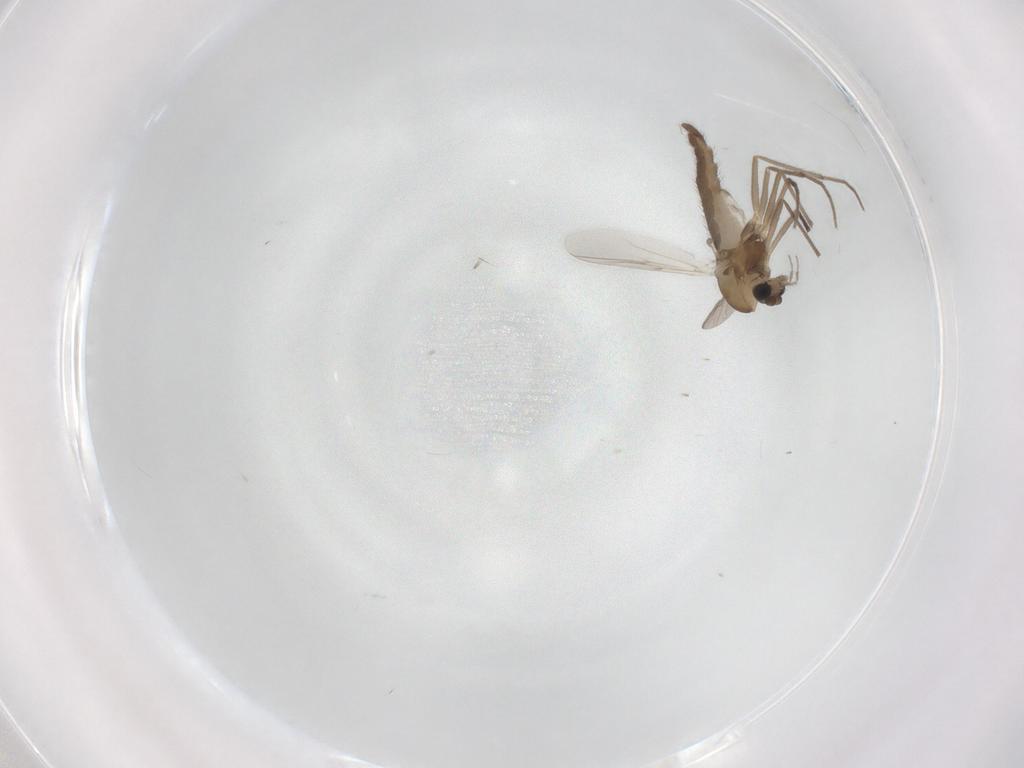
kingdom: Animalia
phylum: Arthropoda
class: Insecta
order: Diptera
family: Chironomidae
